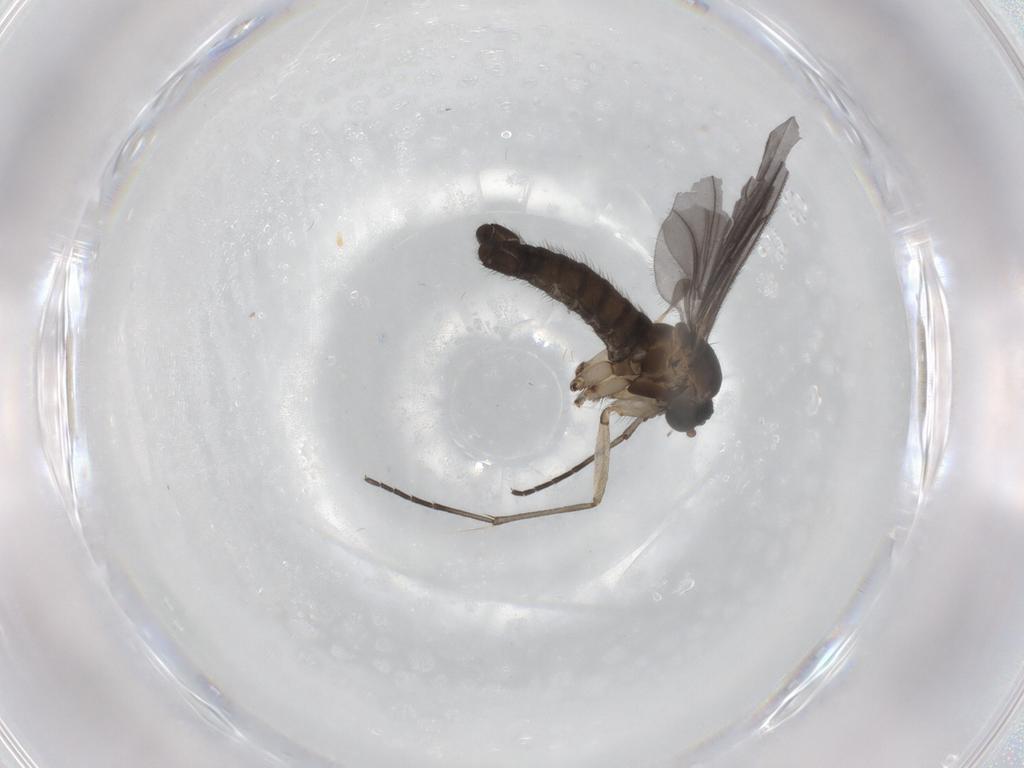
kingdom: Animalia
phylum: Arthropoda
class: Insecta
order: Diptera
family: Sciaridae
